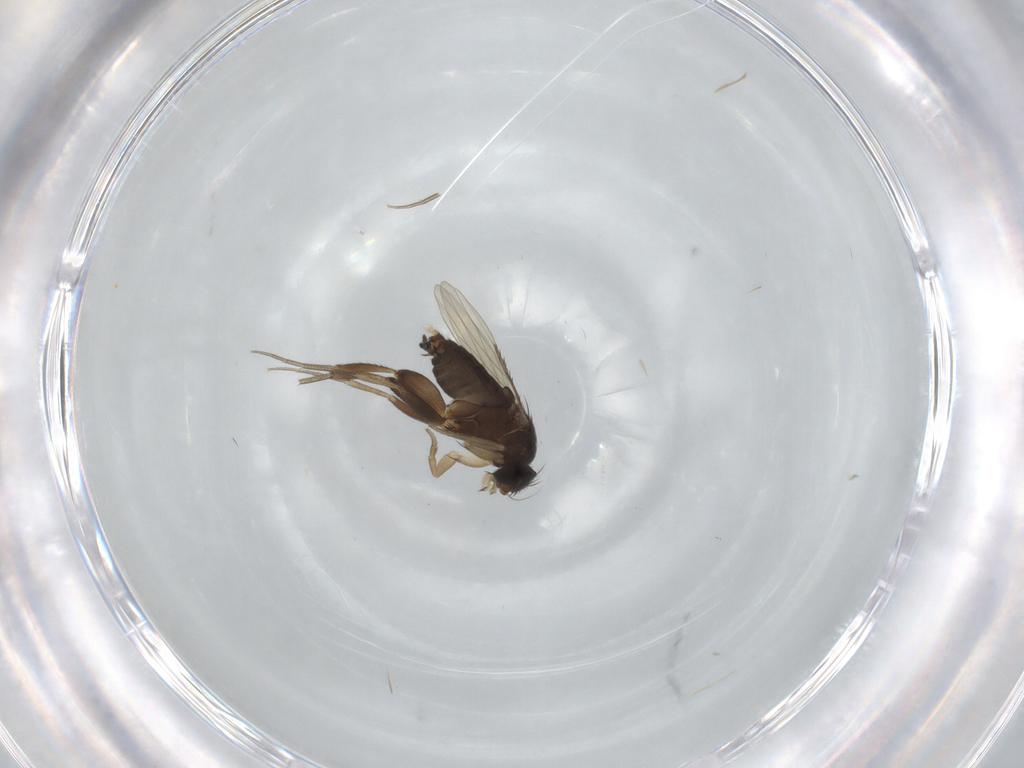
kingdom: Animalia
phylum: Arthropoda
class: Insecta
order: Diptera
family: Phoridae
